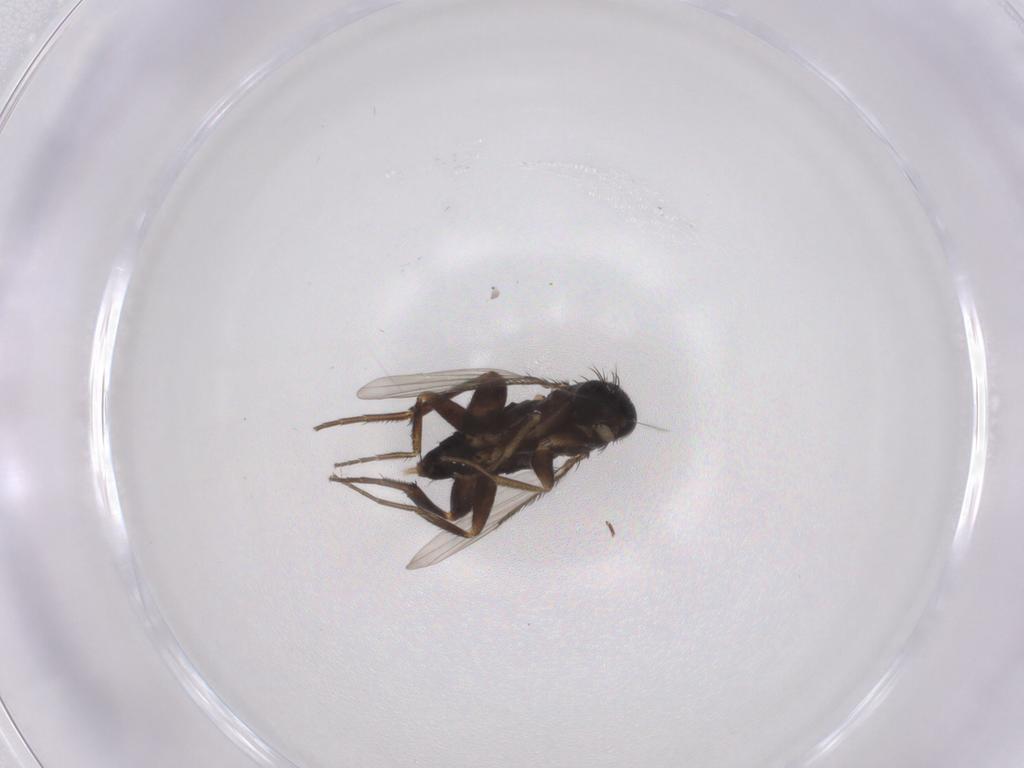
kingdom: Animalia
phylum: Arthropoda
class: Insecta
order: Diptera
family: Phoridae
